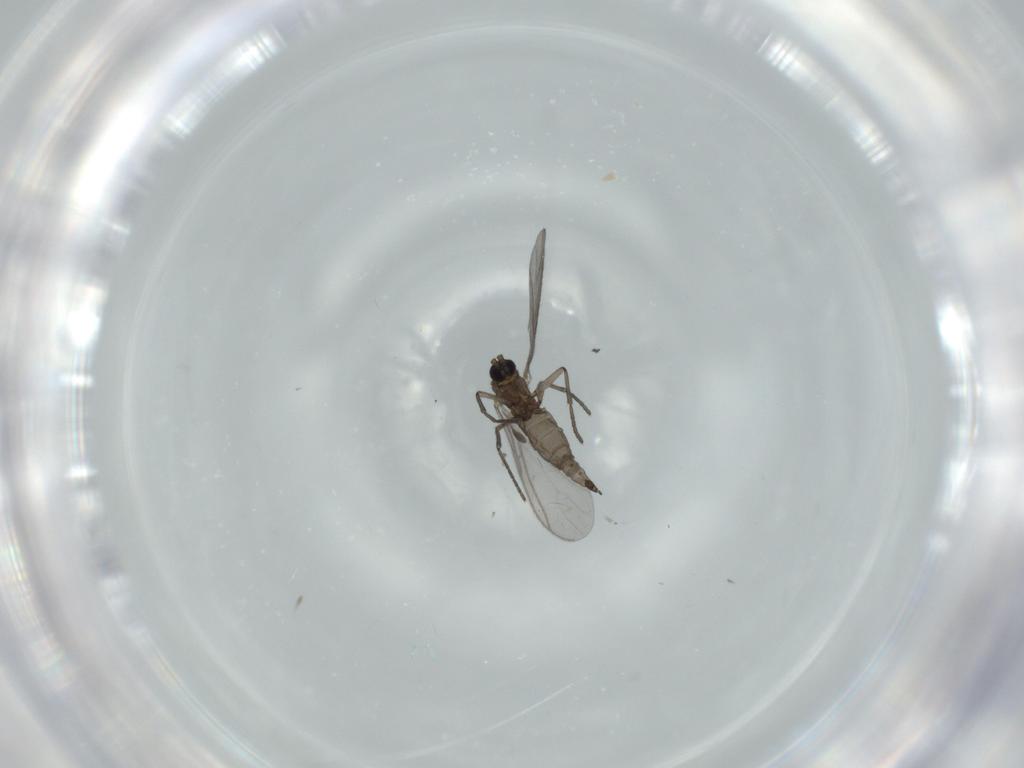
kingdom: Animalia
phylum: Arthropoda
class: Insecta
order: Diptera
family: Sciaridae
